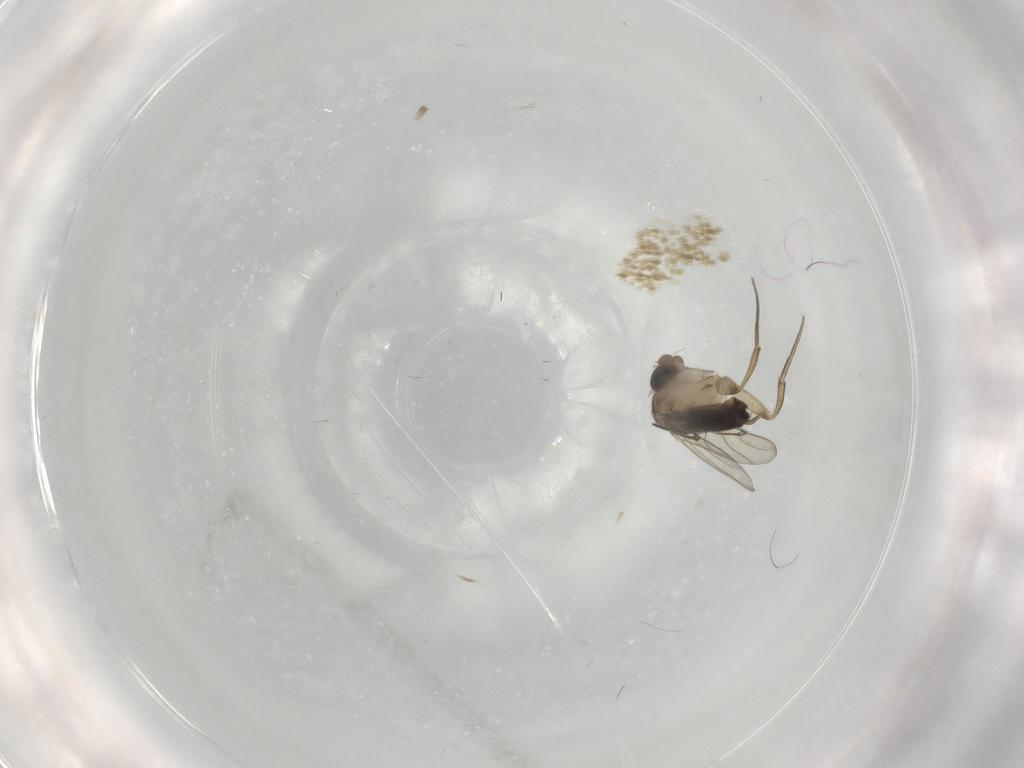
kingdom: Animalia
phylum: Arthropoda
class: Insecta
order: Diptera
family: Phoridae
